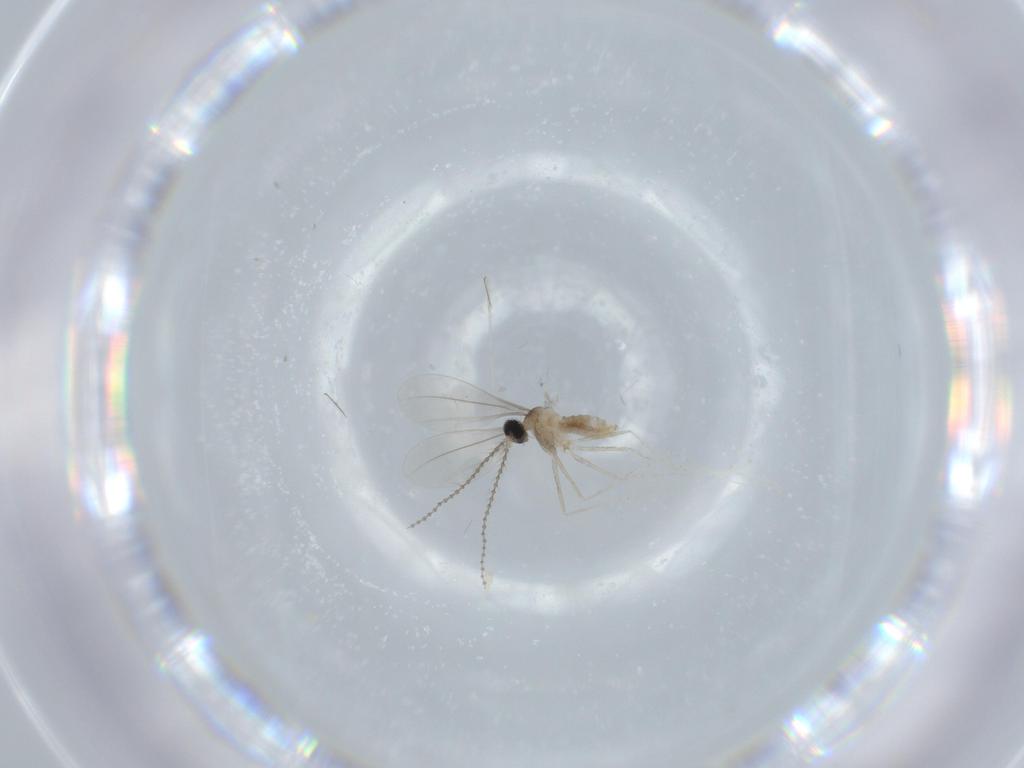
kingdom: Animalia
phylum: Arthropoda
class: Insecta
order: Diptera
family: Cecidomyiidae
